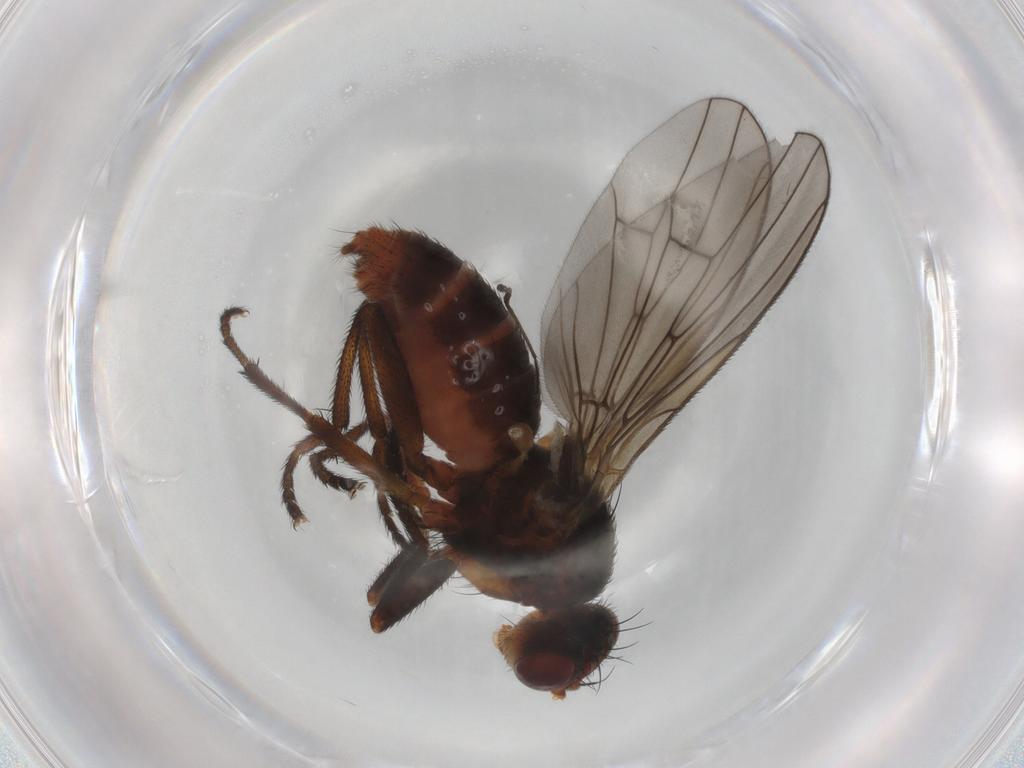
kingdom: Animalia
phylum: Arthropoda
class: Insecta
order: Diptera
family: Sciomyzidae
